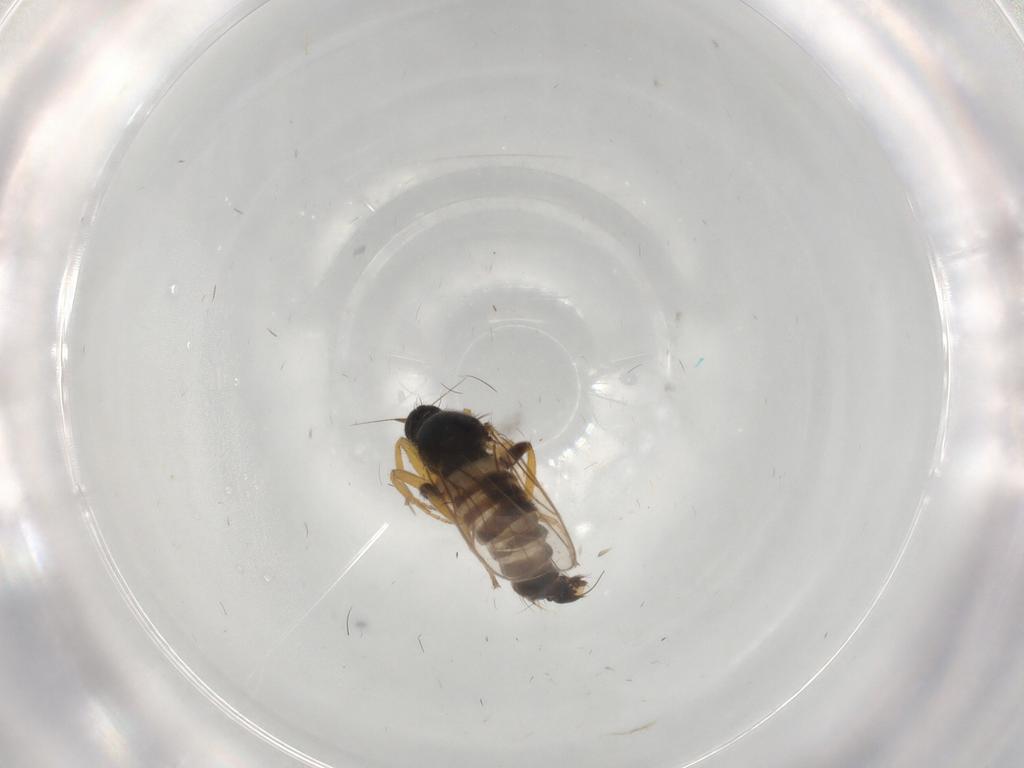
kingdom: Animalia
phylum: Arthropoda
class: Insecta
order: Diptera
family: Cecidomyiidae
